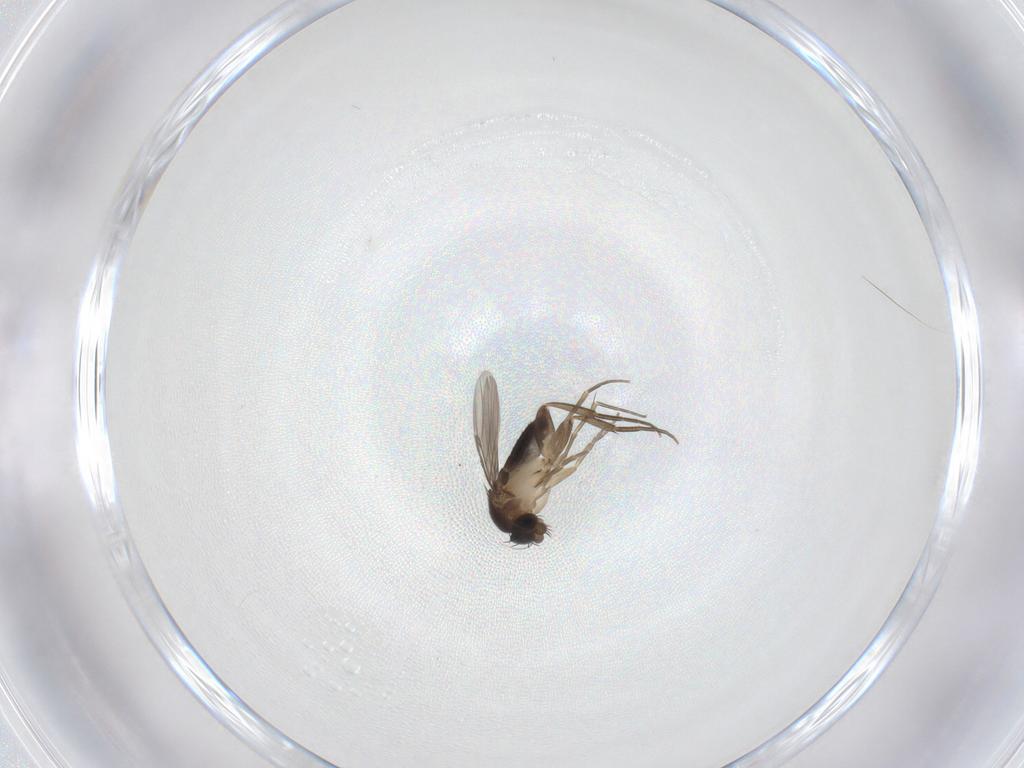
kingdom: Animalia
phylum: Arthropoda
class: Insecta
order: Diptera
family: Phoridae
